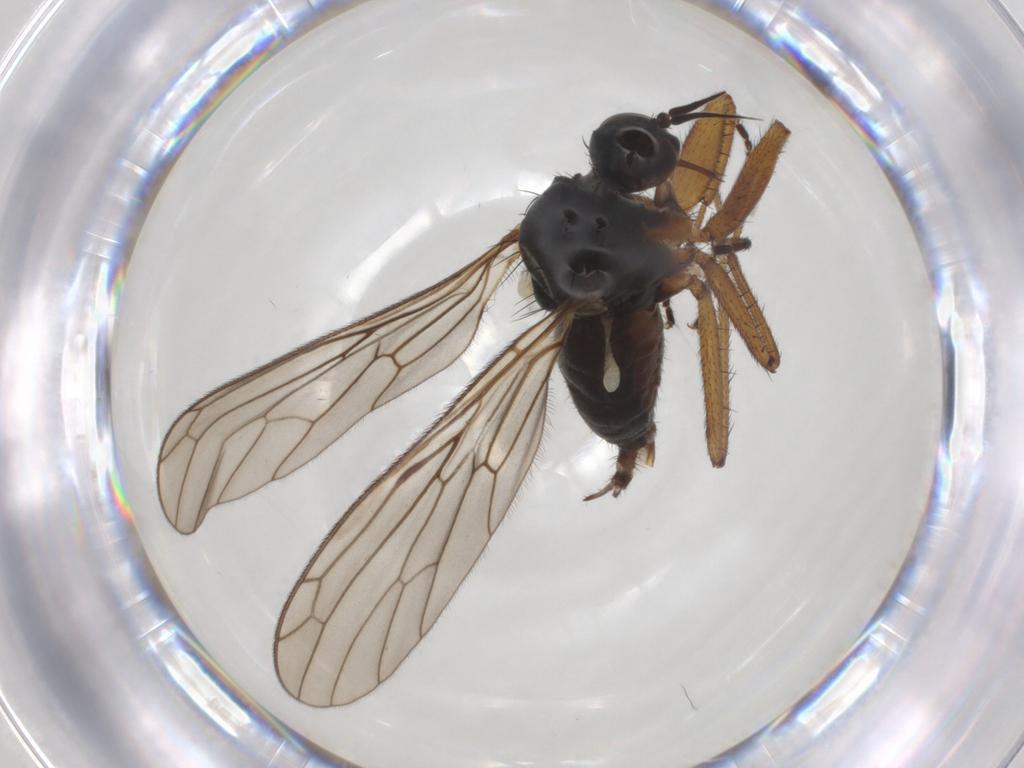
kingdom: Animalia
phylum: Arthropoda
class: Insecta
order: Diptera
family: Empididae
